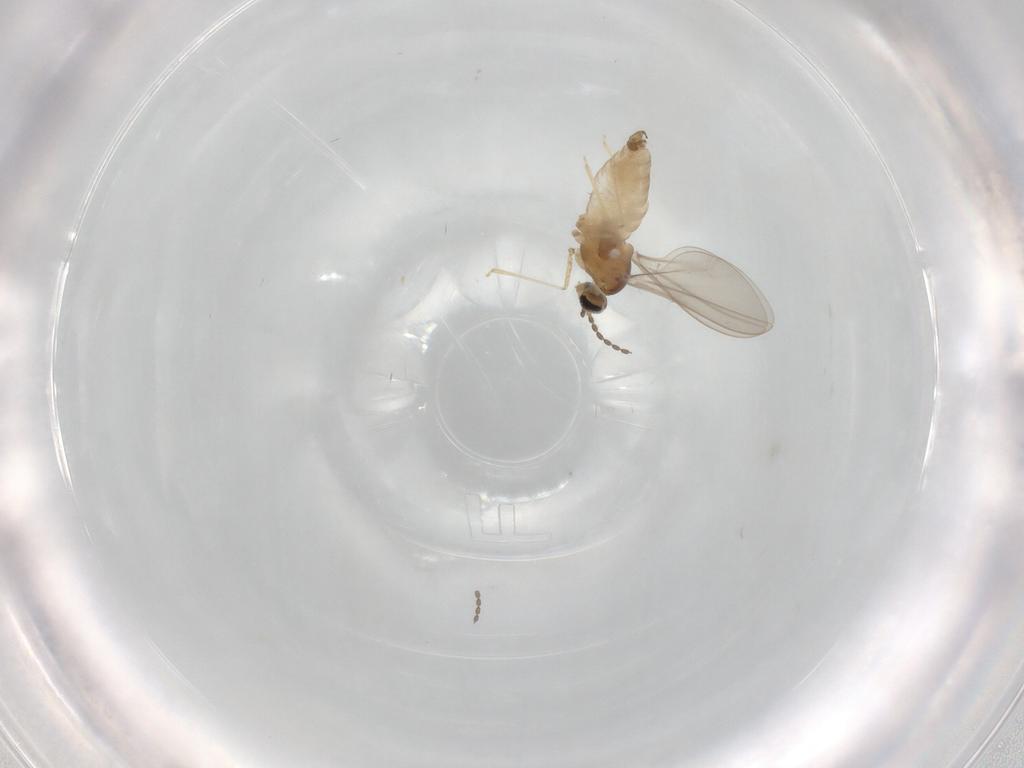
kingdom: Animalia
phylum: Arthropoda
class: Insecta
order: Diptera
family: Cecidomyiidae
